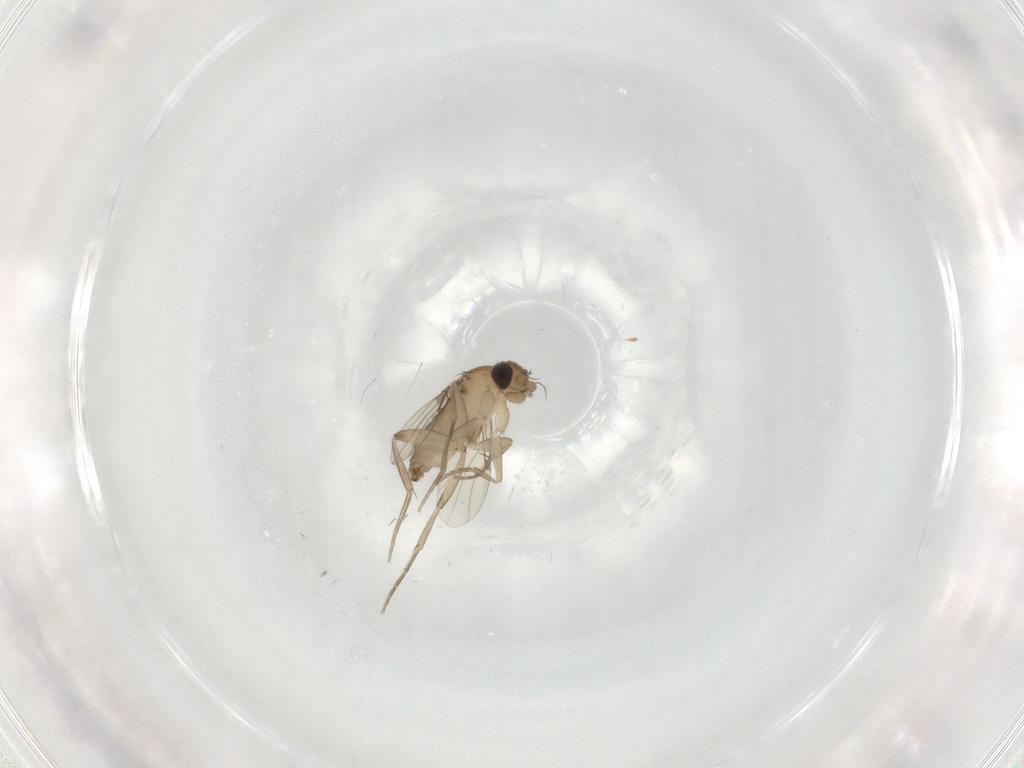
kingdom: Animalia
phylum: Arthropoda
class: Insecta
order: Diptera
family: Phoridae
